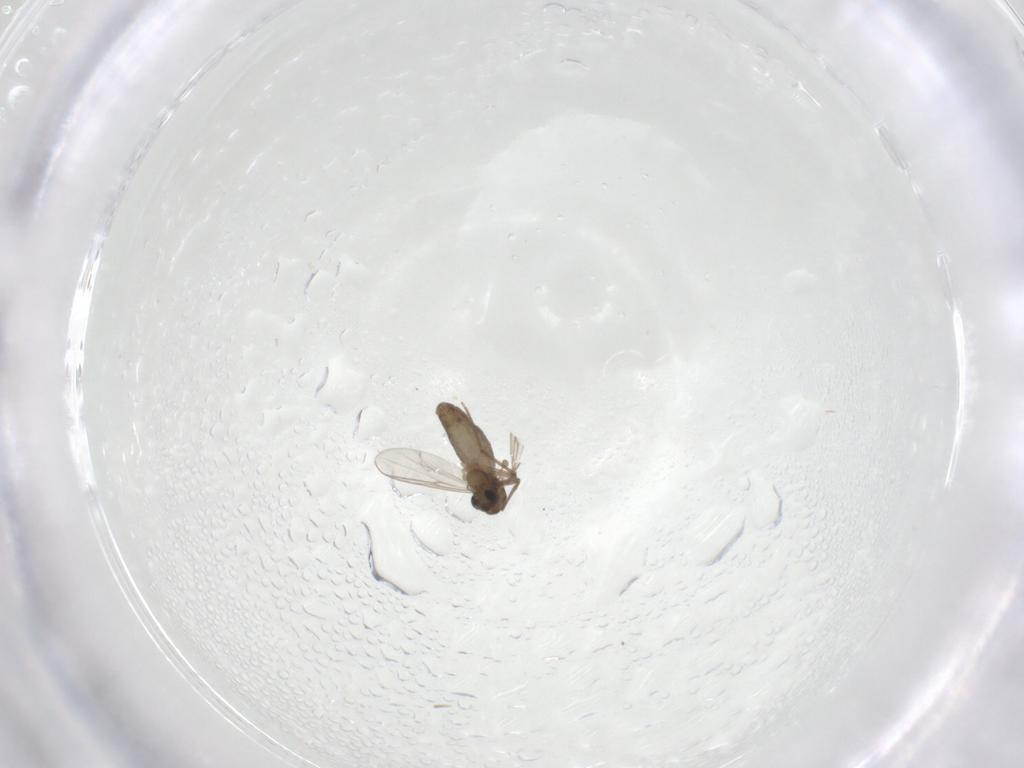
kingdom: Animalia
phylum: Arthropoda
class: Insecta
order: Diptera
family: Chironomidae
